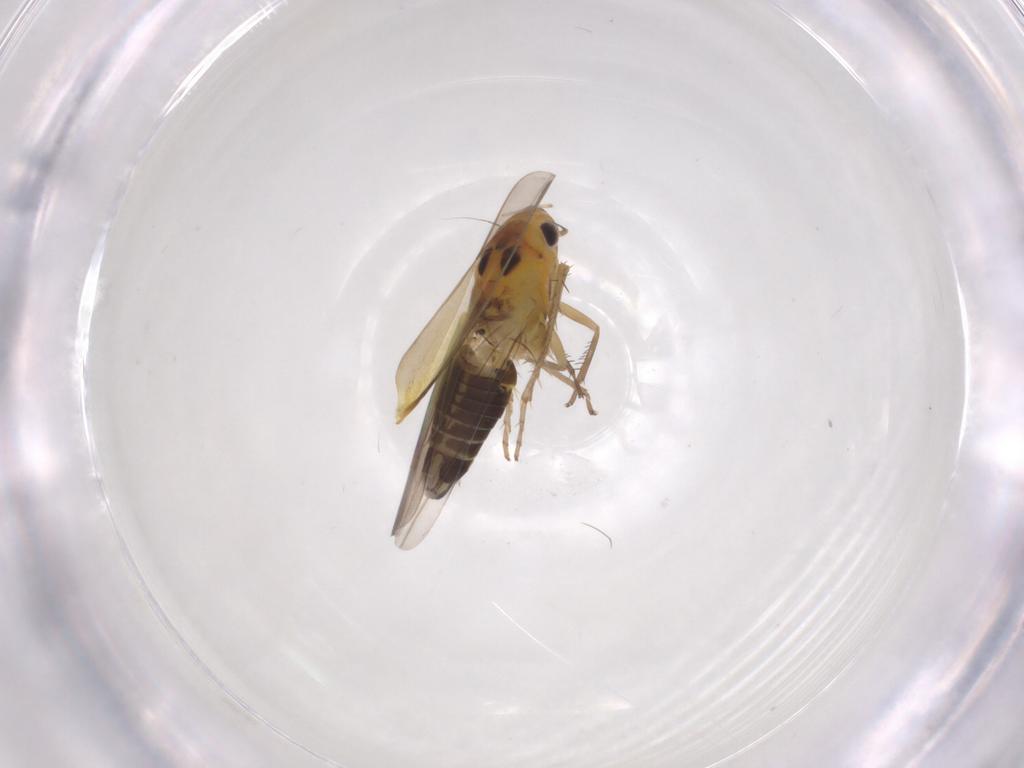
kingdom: Animalia
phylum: Arthropoda
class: Insecta
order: Hemiptera
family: Cicadellidae
